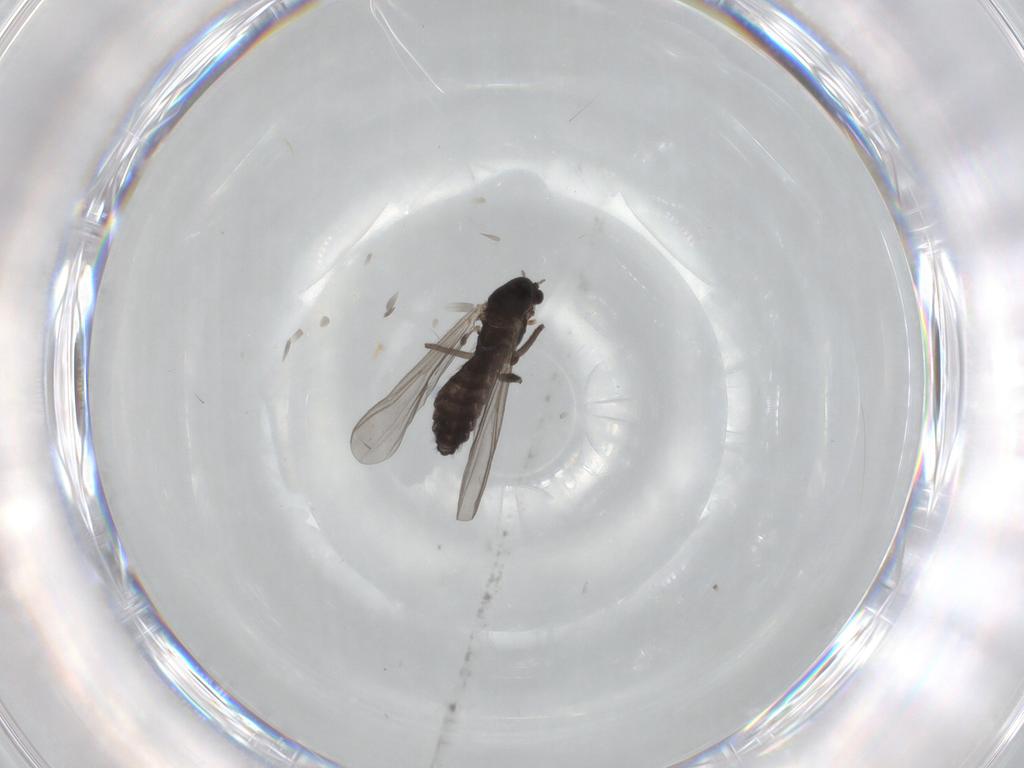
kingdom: Animalia
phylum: Arthropoda
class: Insecta
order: Diptera
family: Chironomidae
